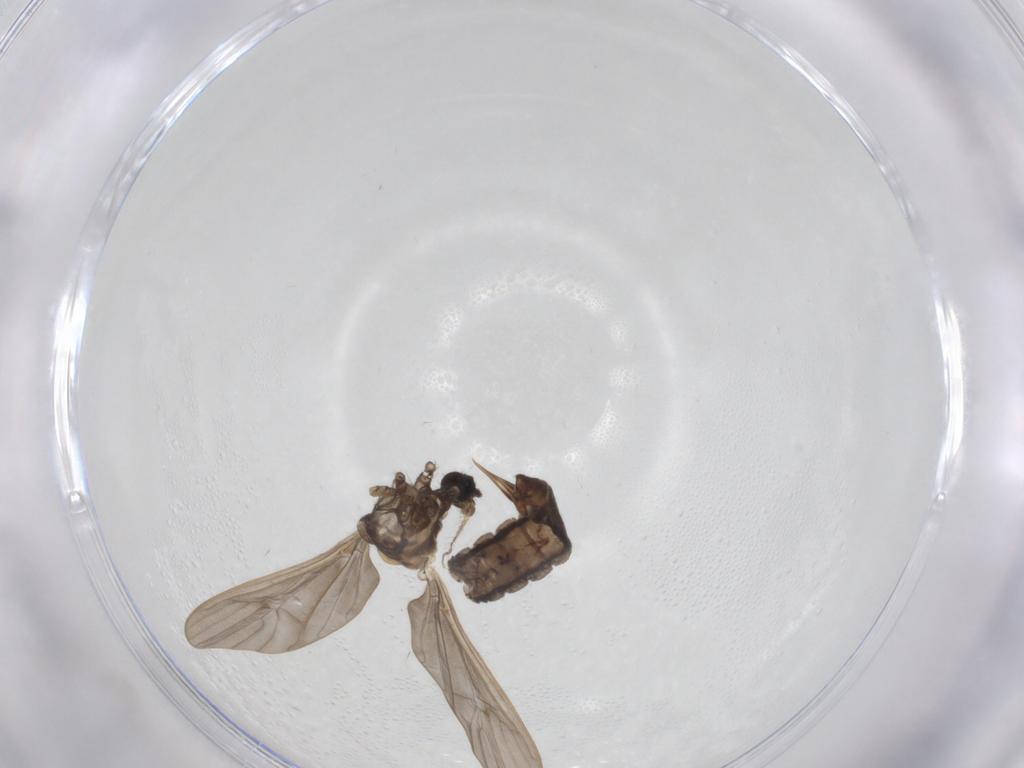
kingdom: Animalia
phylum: Arthropoda
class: Insecta
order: Diptera
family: Limoniidae
